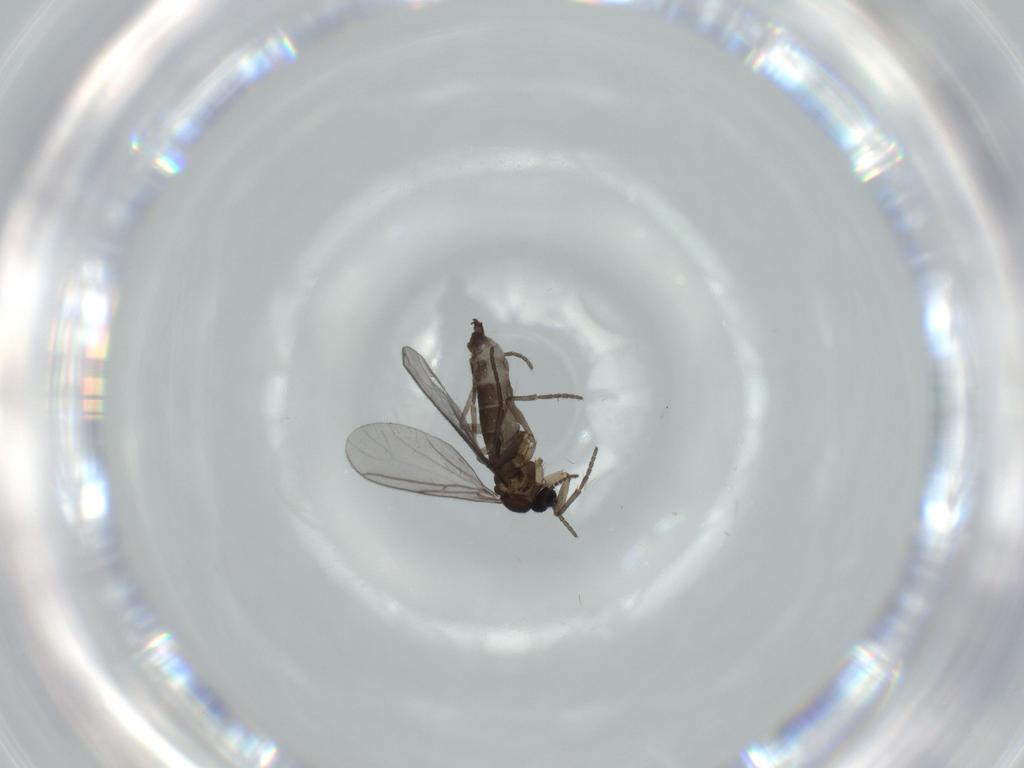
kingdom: Animalia
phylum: Arthropoda
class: Insecta
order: Diptera
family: Sciaridae
